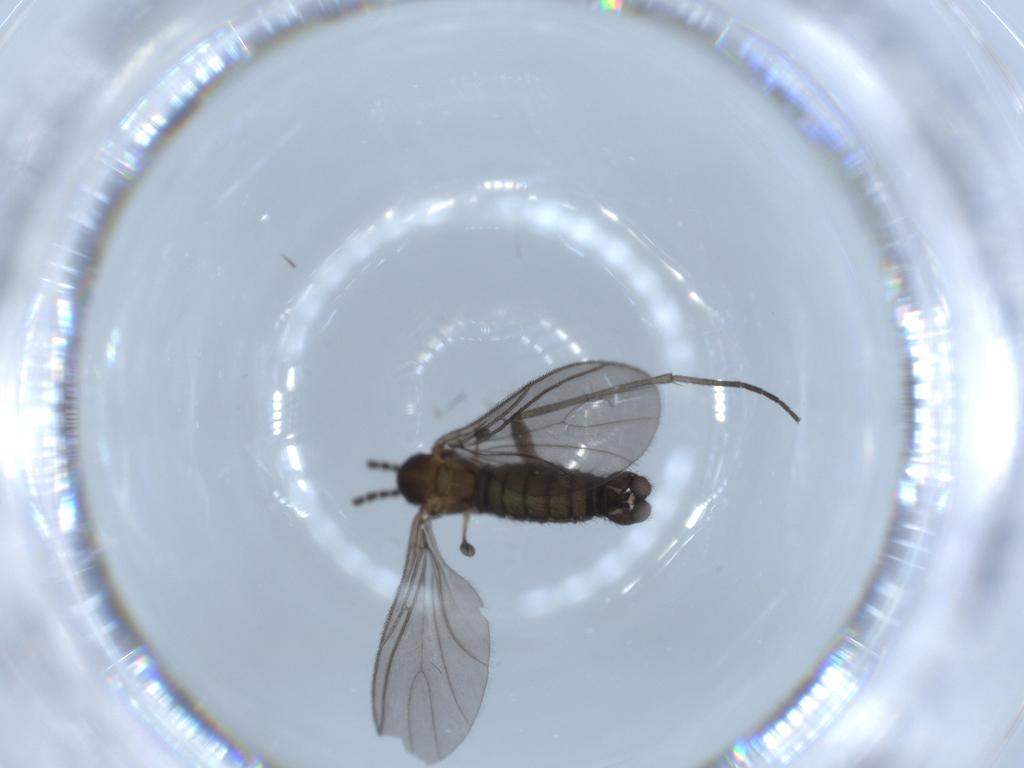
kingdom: Animalia
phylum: Arthropoda
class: Insecta
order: Diptera
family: Sciaridae
